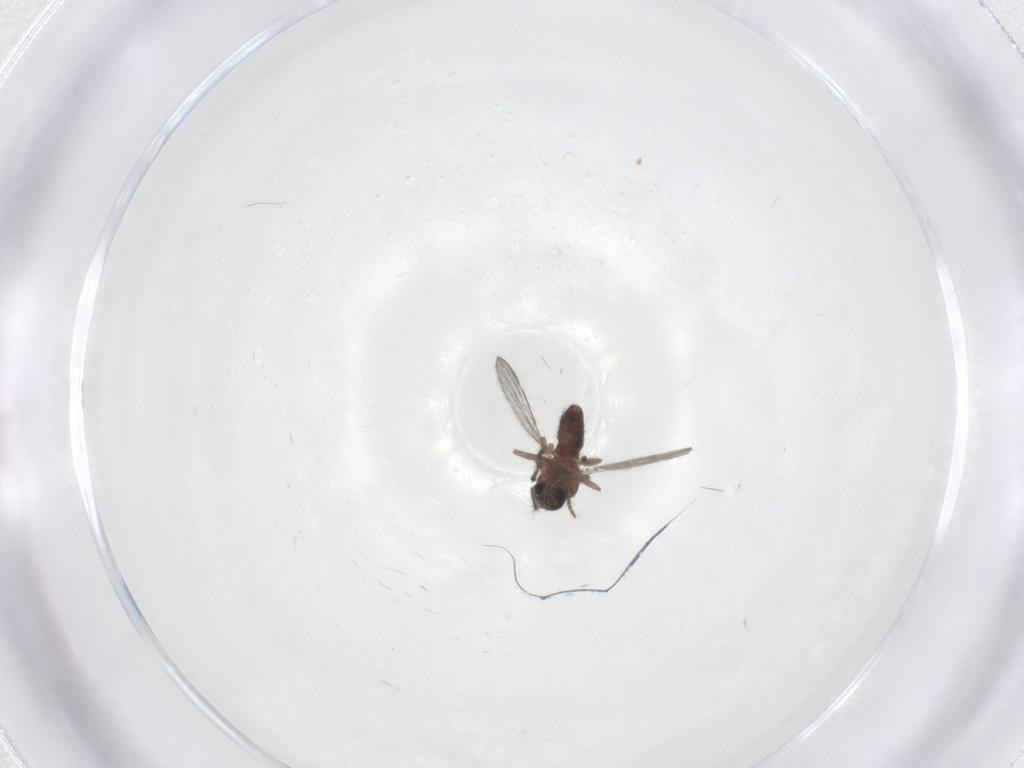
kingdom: Animalia
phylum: Arthropoda
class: Insecta
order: Diptera
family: Ceratopogonidae
